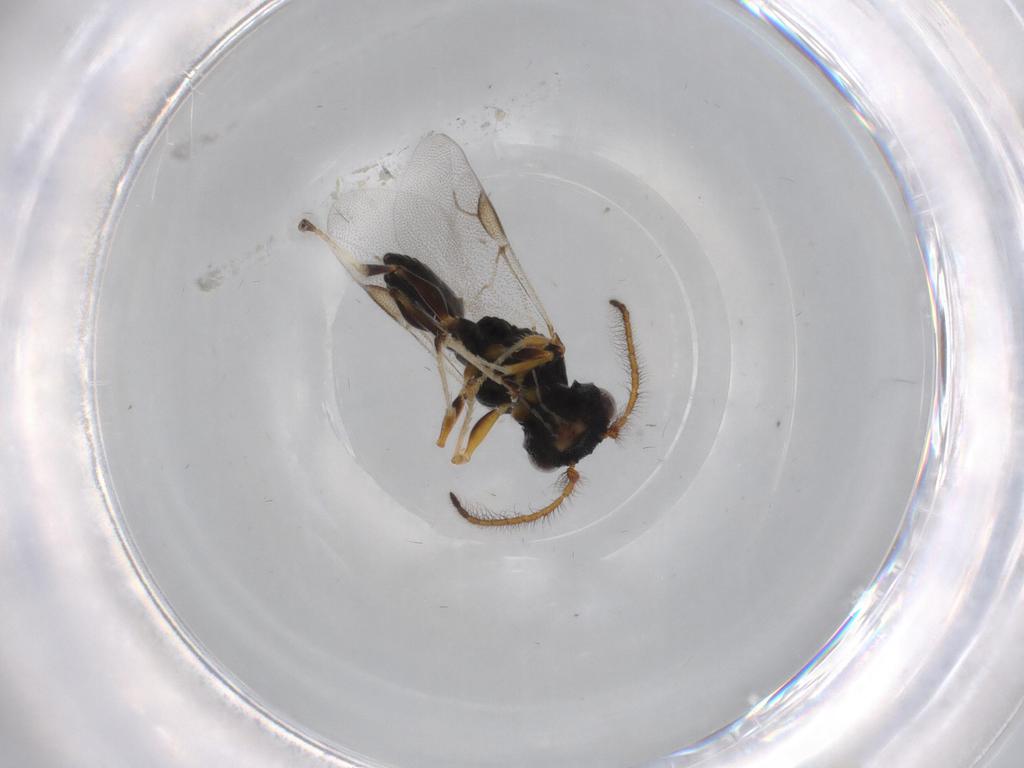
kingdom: Animalia
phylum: Arthropoda
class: Insecta
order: Hymenoptera
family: Dryinidae
